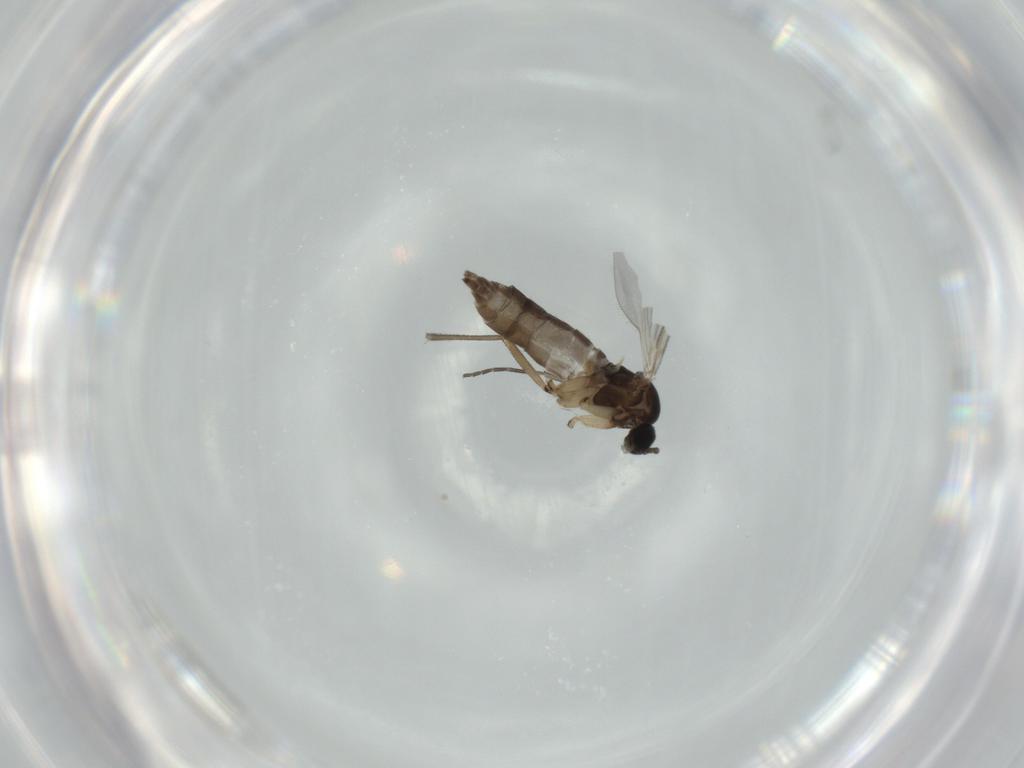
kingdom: Animalia
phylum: Arthropoda
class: Insecta
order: Diptera
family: Sciaridae
